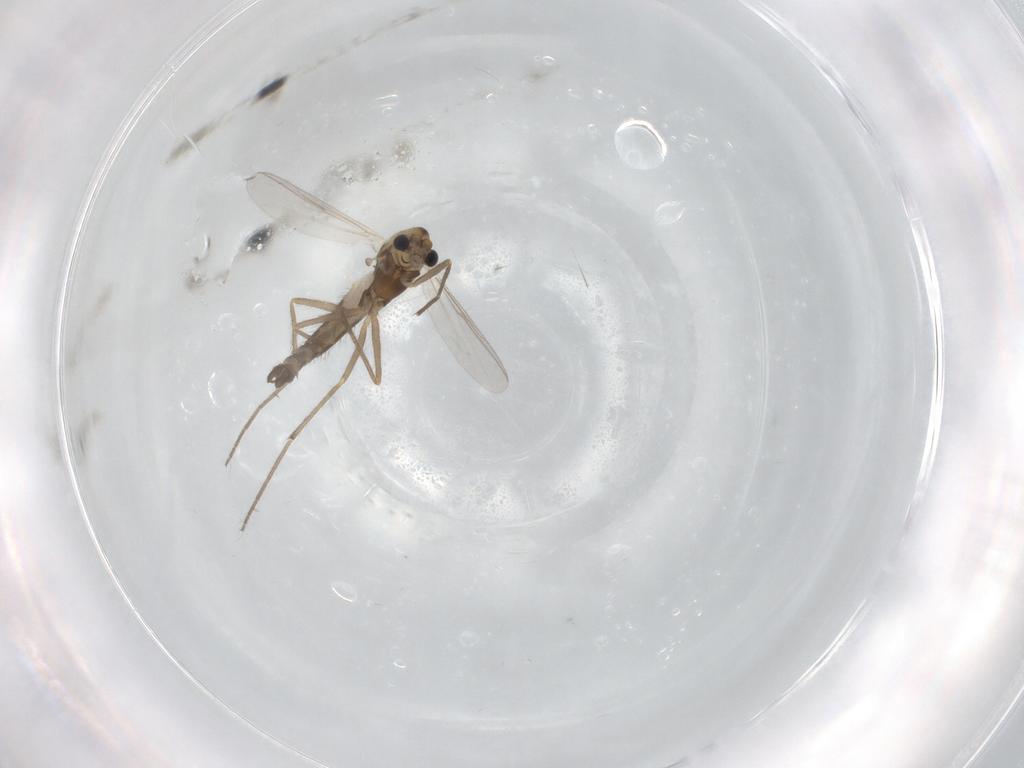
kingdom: Animalia
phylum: Arthropoda
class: Insecta
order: Diptera
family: Chironomidae
